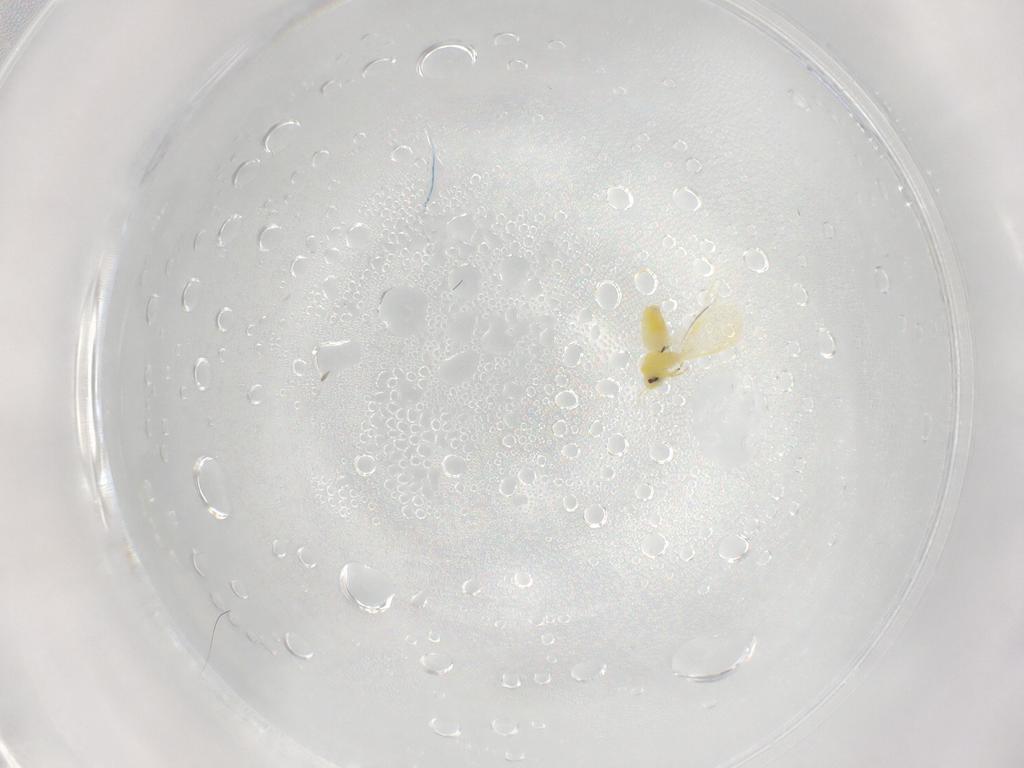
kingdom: Animalia
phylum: Arthropoda
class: Insecta
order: Hemiptera
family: Aleyrodidae
